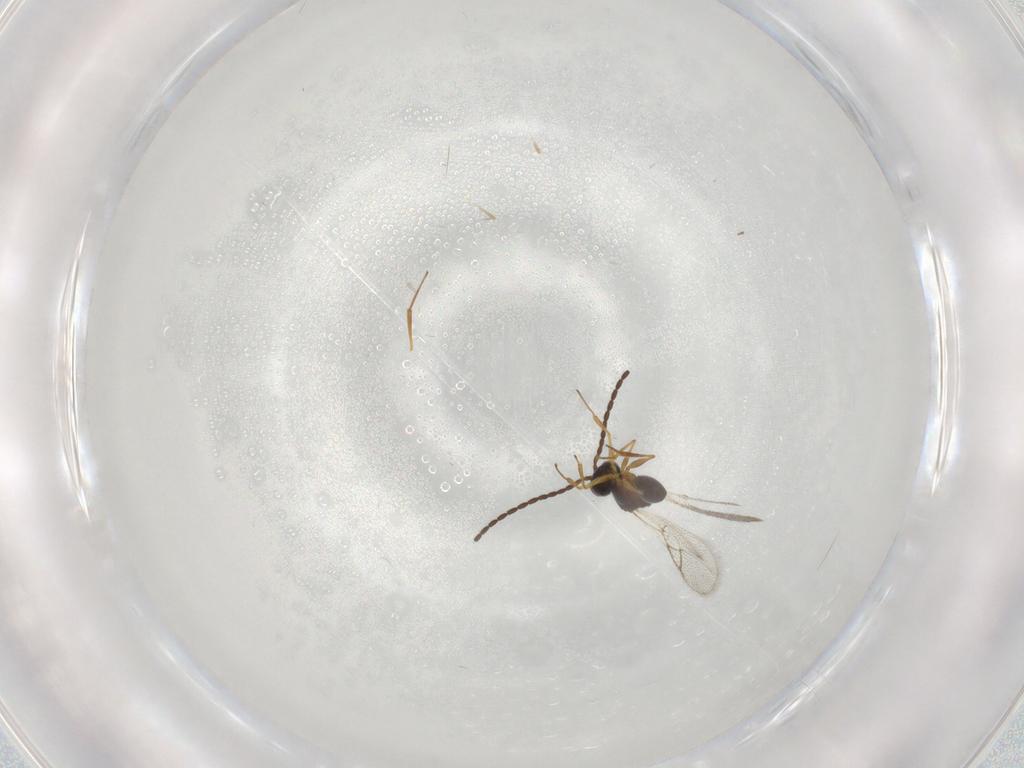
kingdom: Animalia
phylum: Arthropoda
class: Insecta
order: Hymenoptera
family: Figitidae
